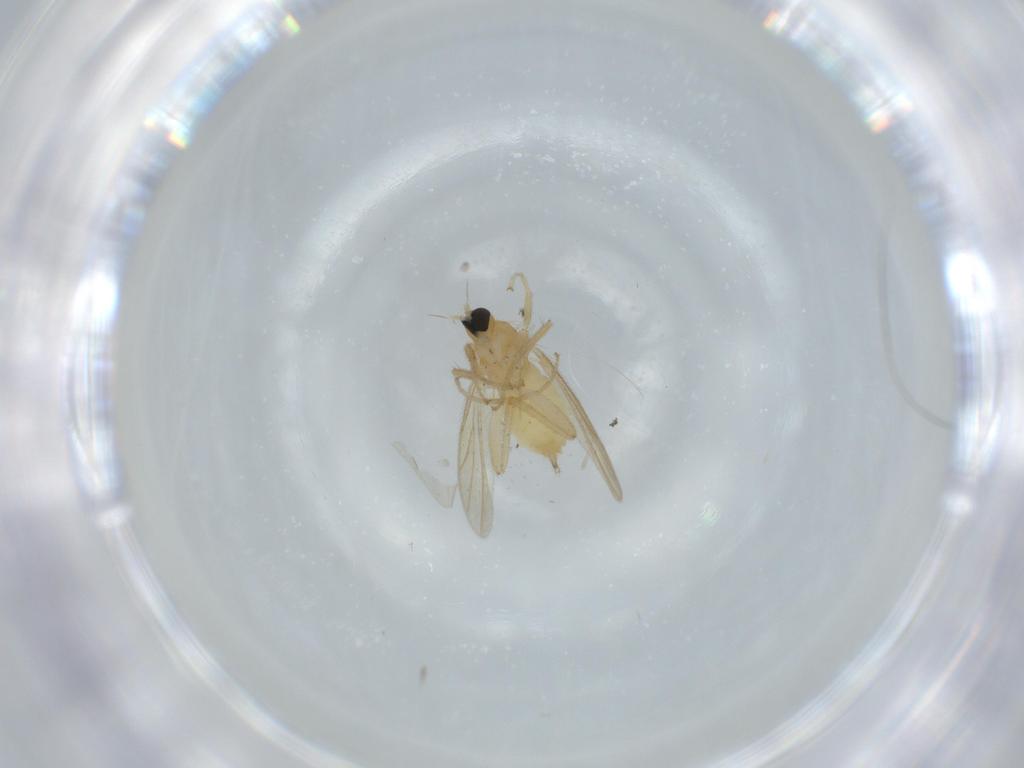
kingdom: Animalia
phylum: Arthropoda
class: Insecta
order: Diptera
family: Hybotidae
